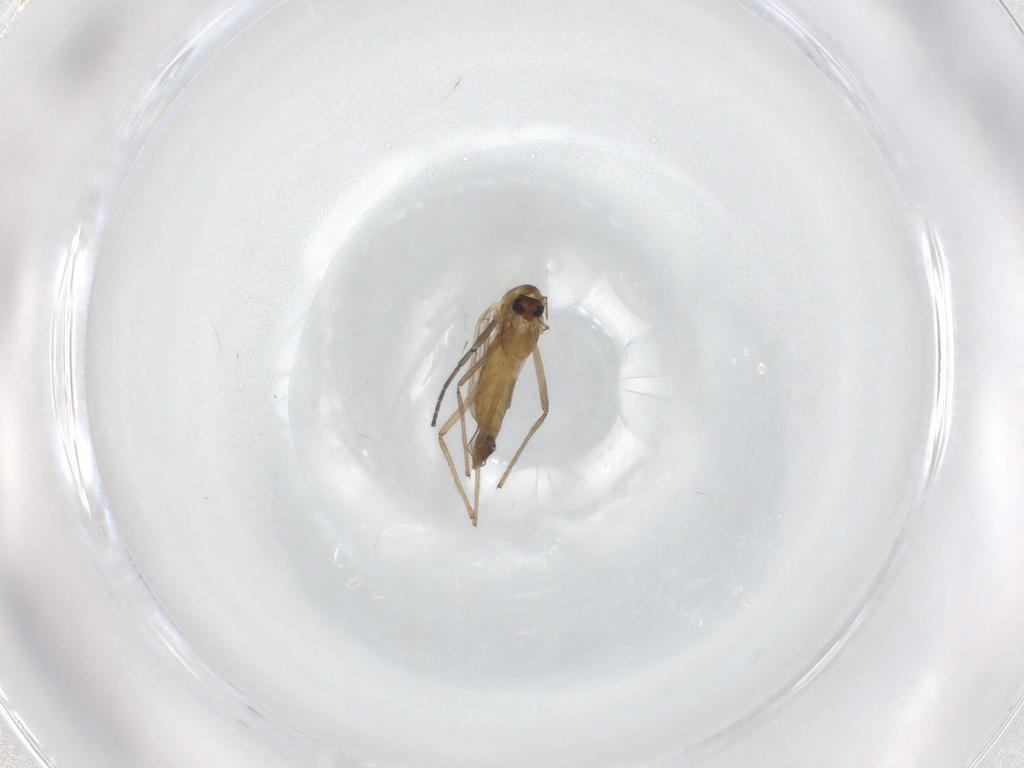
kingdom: Animalia
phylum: Arthropoda
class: Insecta
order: Diptera
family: Chironomidae
